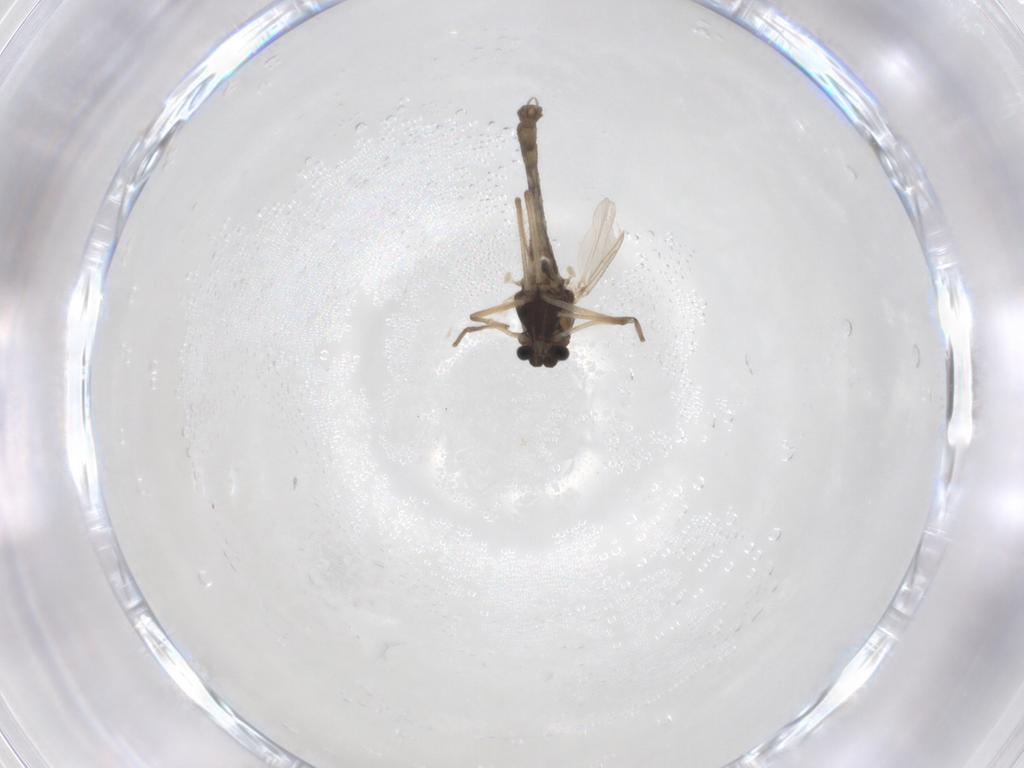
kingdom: Animalia
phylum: Arthropoda
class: Insecta
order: Diptera
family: Chironomidae
